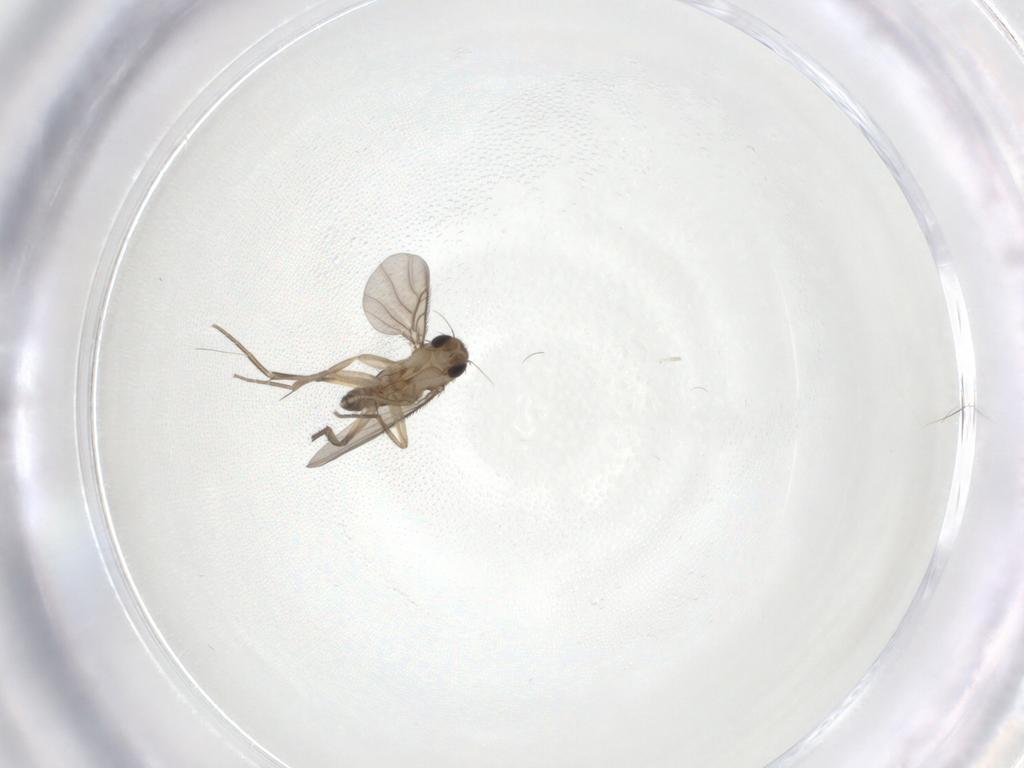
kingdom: Animalia
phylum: Arthropoda
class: Insecta
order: Diptera
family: Phoridae
